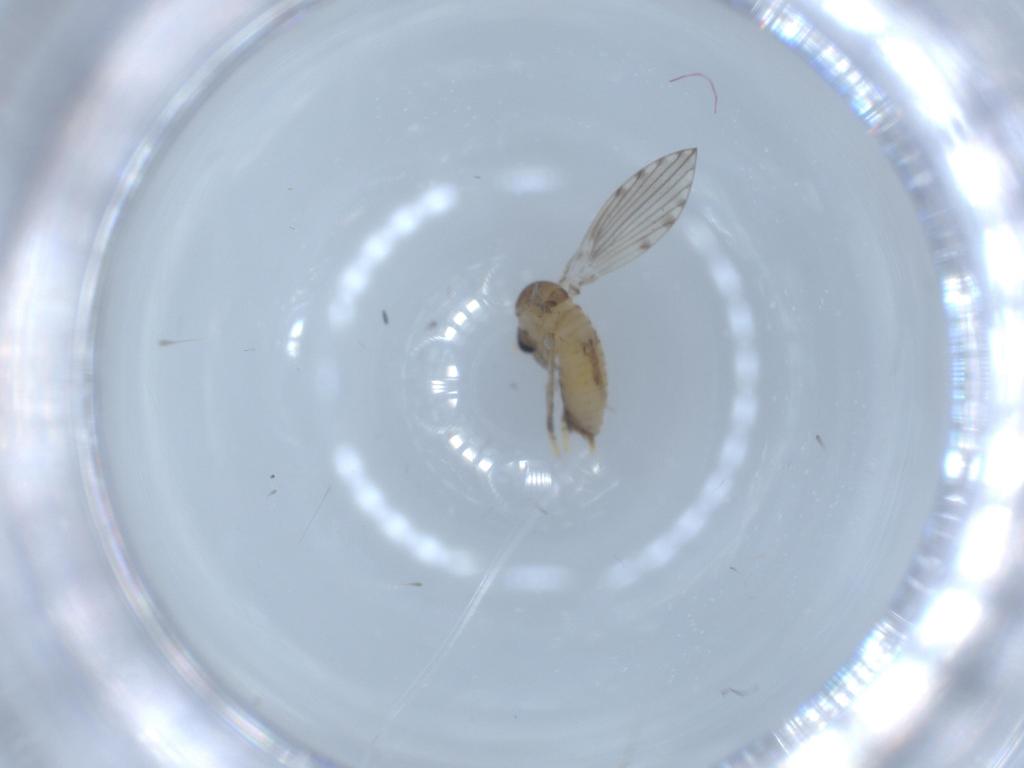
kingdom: Animalia
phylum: Arthropoda
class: Insecta
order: Diptera
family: Psychodidae
